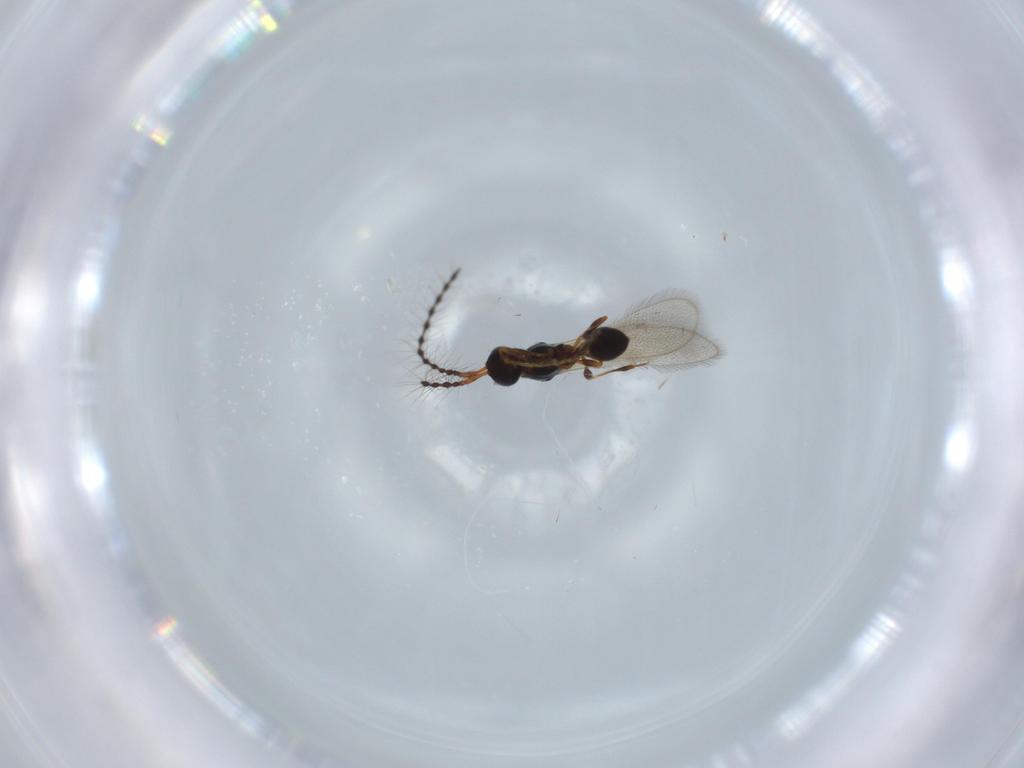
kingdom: Animalia
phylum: Arthropoda
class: Insecta
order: Hymenoptera
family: Diapriidae
